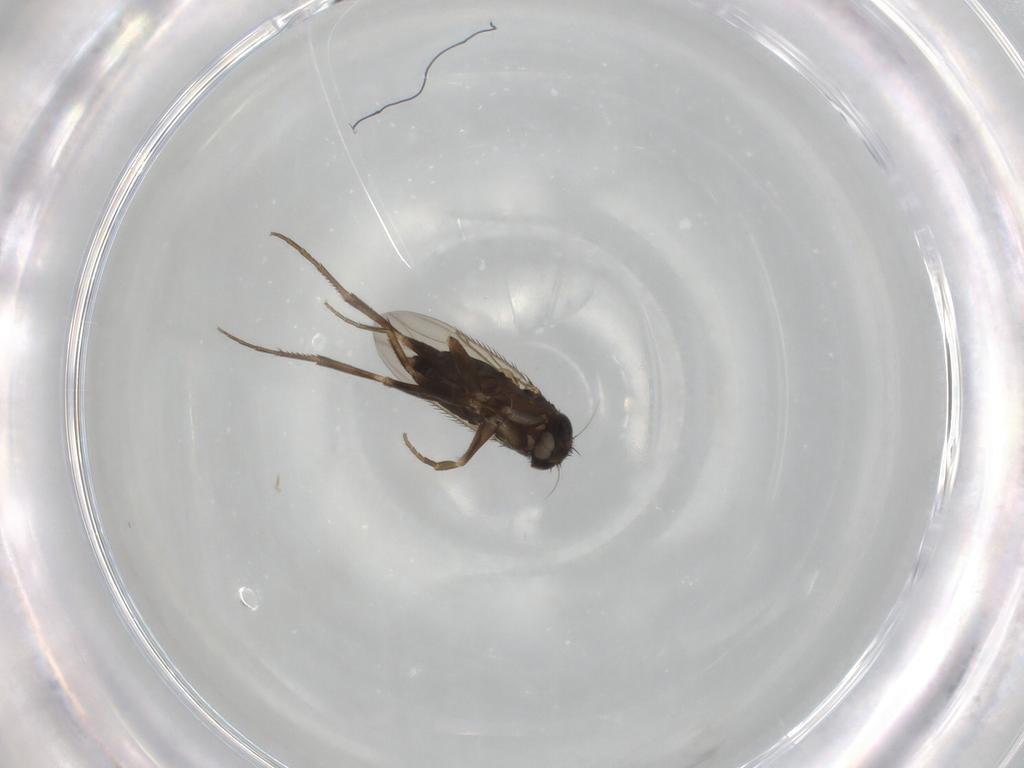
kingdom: Animalia
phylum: Arthropoda
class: Insecta
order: Diptera
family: Phoridae
